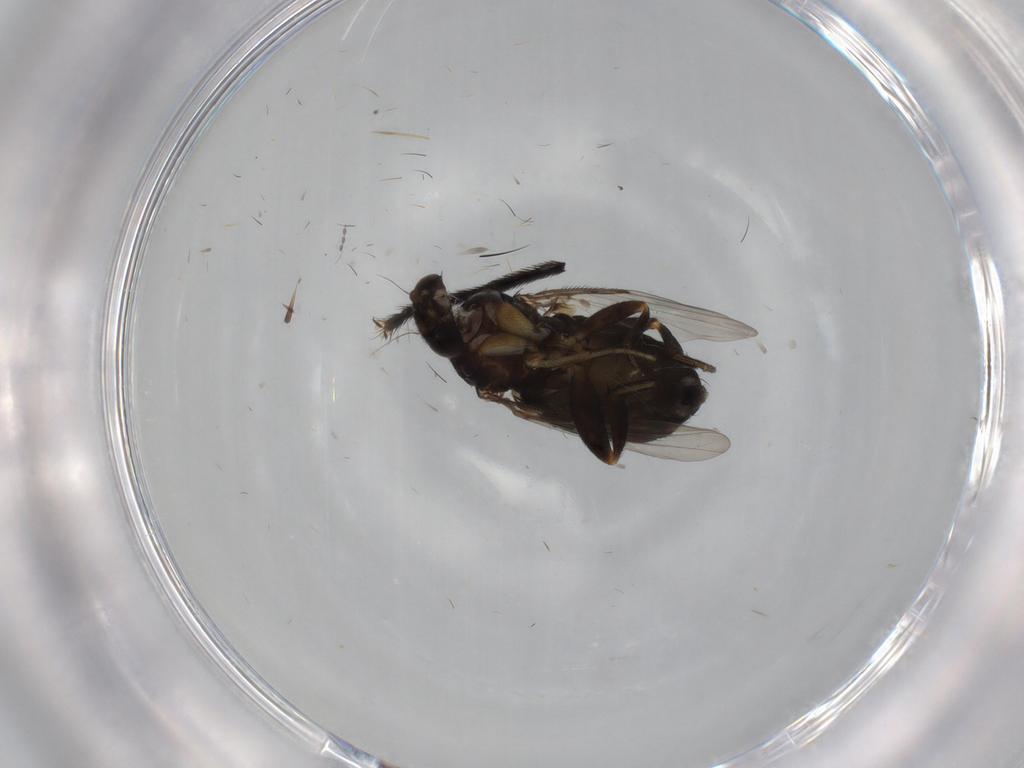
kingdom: Animalia
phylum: Arthropoda
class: Insecta
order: Diptera
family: Phoridae
